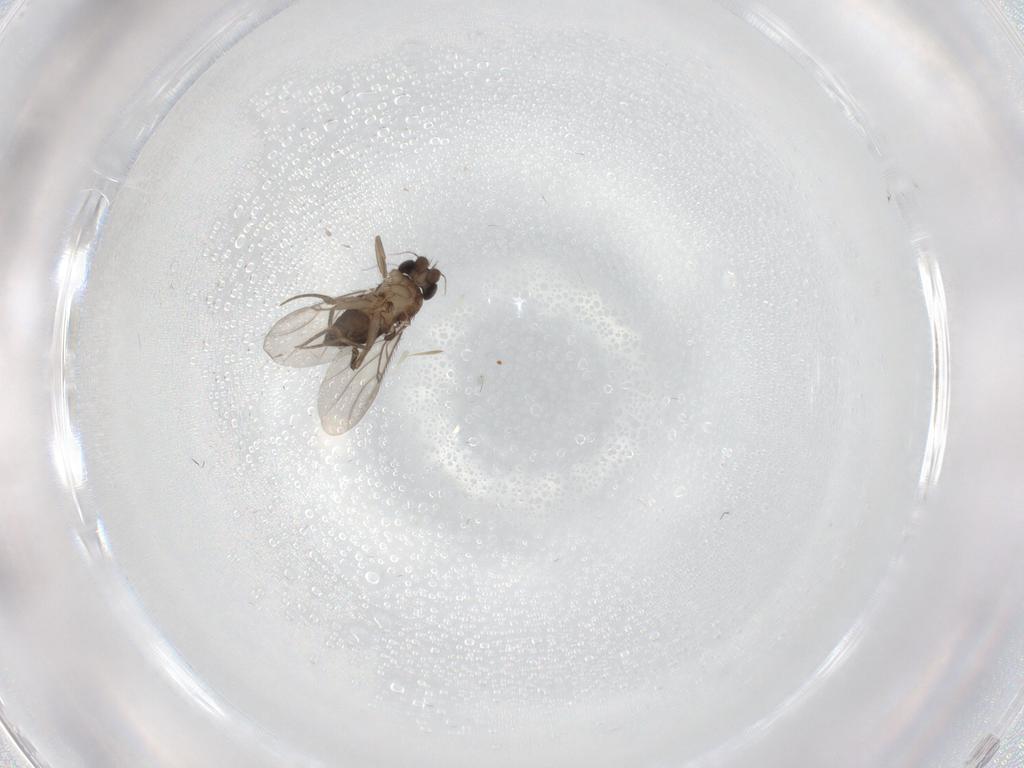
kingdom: Animalia
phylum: Arthropoda
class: Insecta
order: Diptera
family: Phoridae
